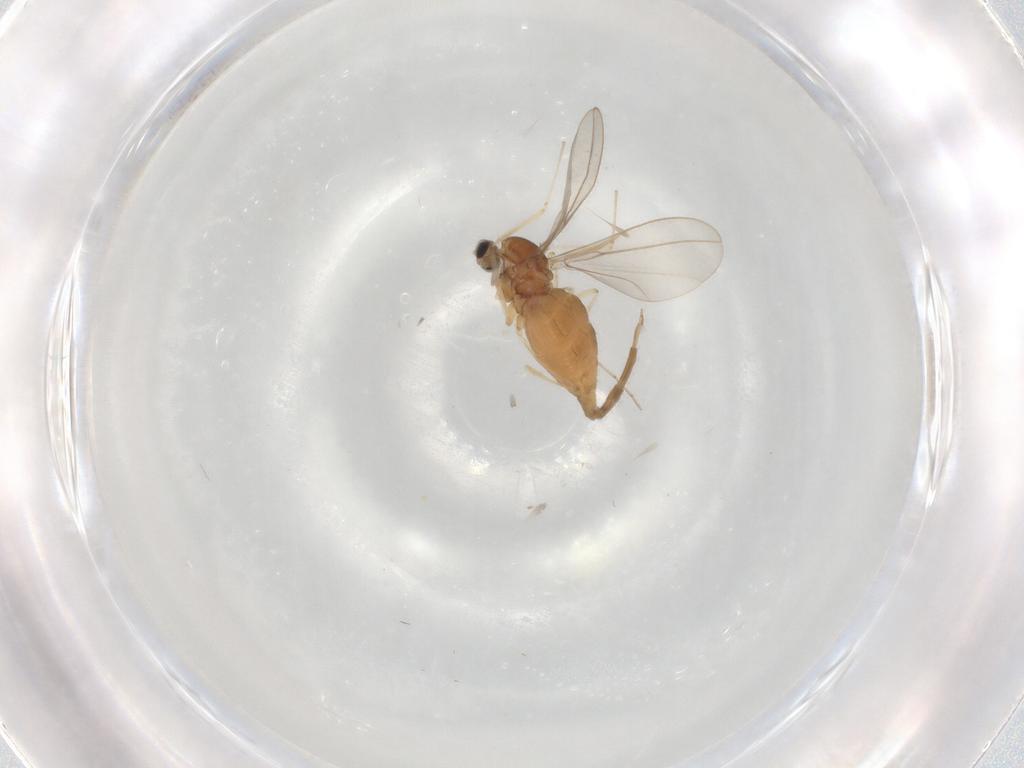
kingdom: Animalia
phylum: Arthropoda
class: Insecta
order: Diptera
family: Cecidomyiidae
